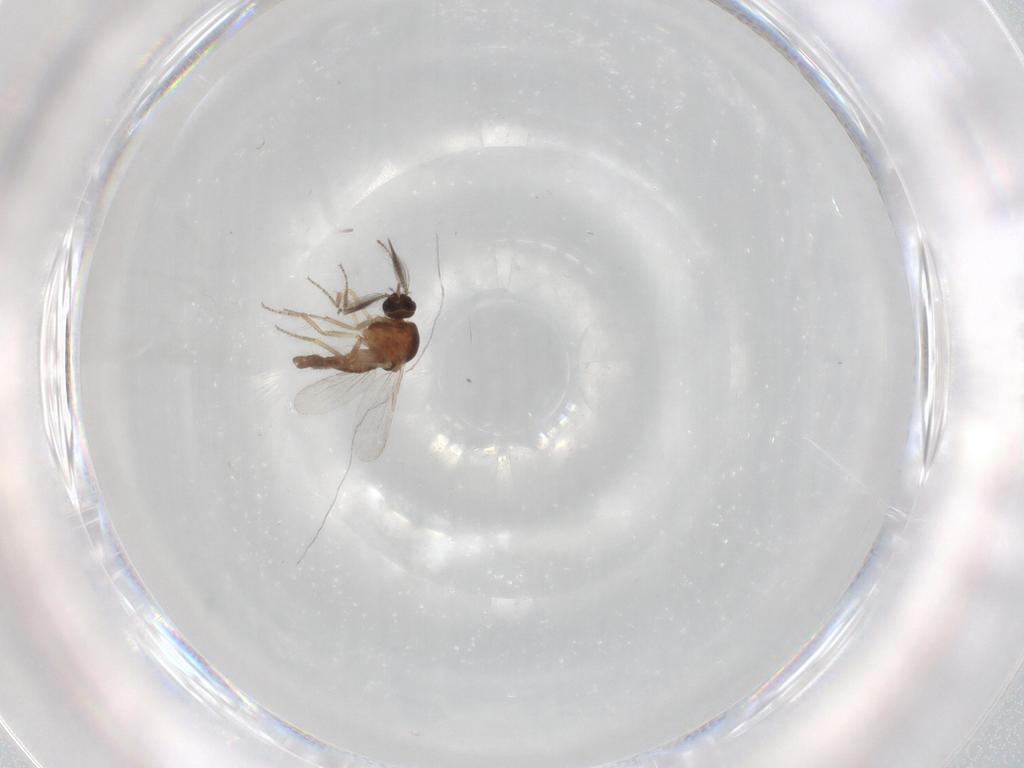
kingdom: Animalia
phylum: Arthropoda
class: Insecta
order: Diptera
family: Ceratopogonidae
